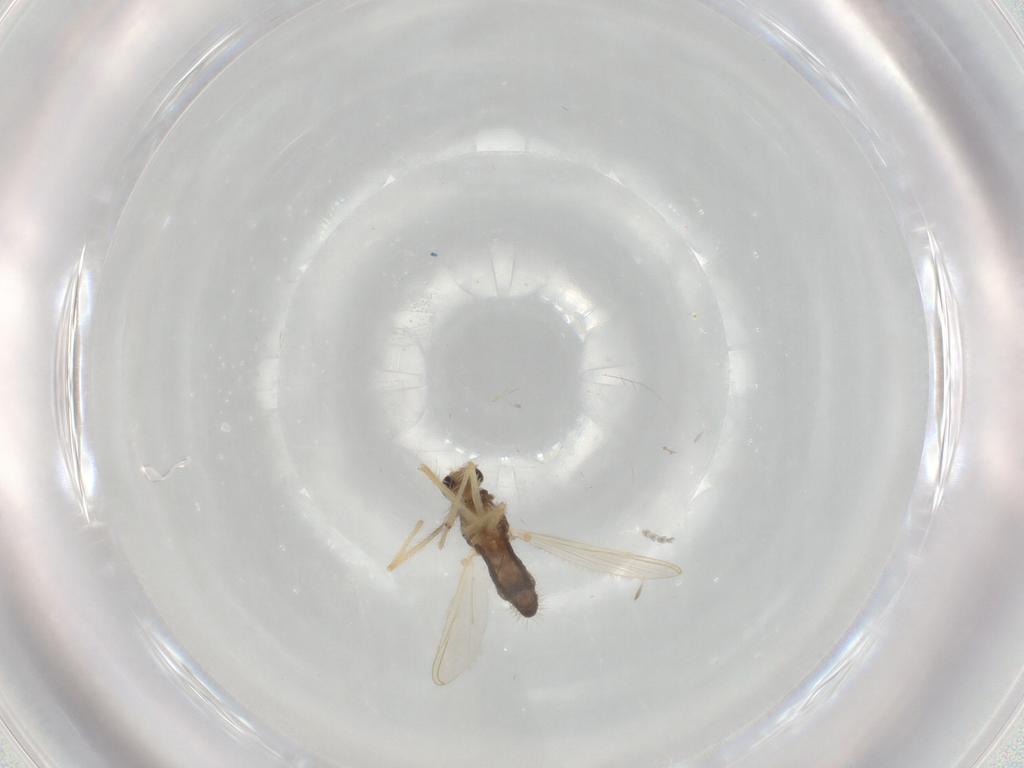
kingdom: Animalia
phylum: Arthropoda
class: Insecta
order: Diptera
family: Chironomidae
